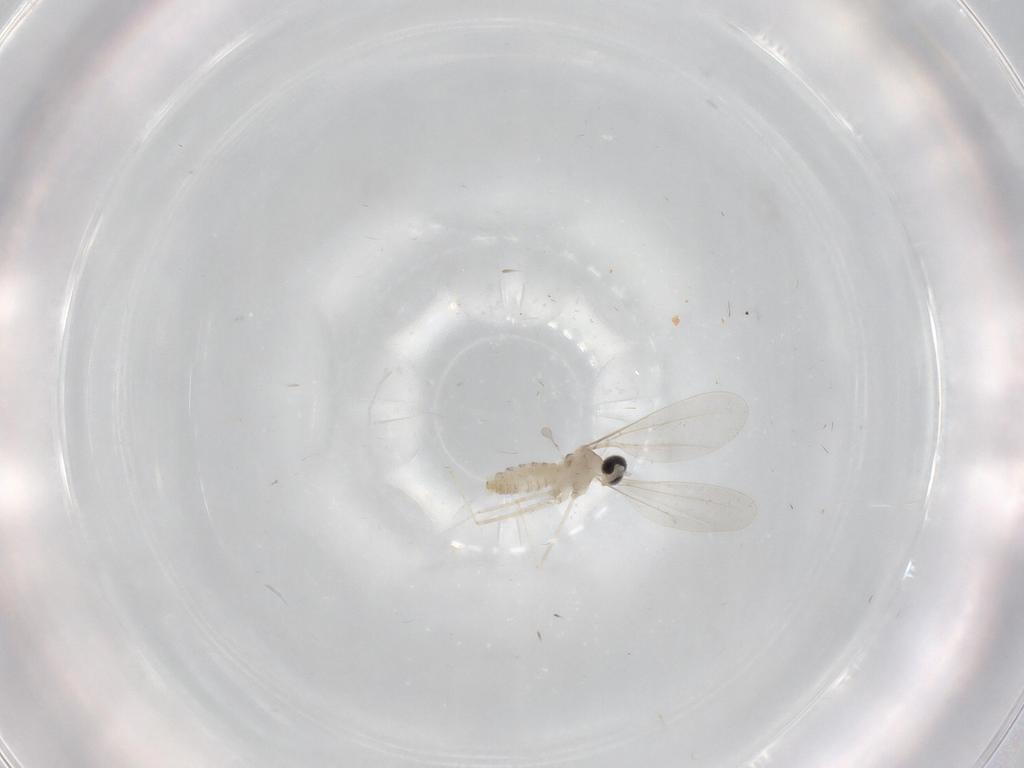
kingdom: Animalia
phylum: Arthropoda
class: Insecta
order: Diptera
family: Cecidomyiidae
